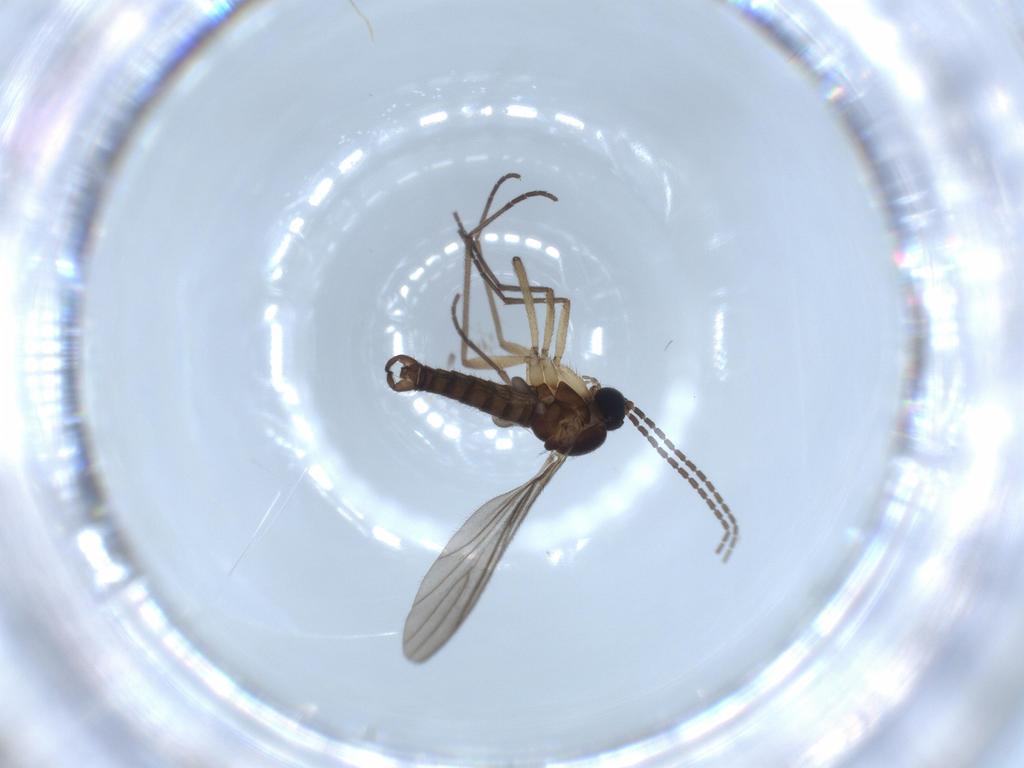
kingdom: Animalia
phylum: Arthropoda
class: Insecta
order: Diptera
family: Sciaridae
